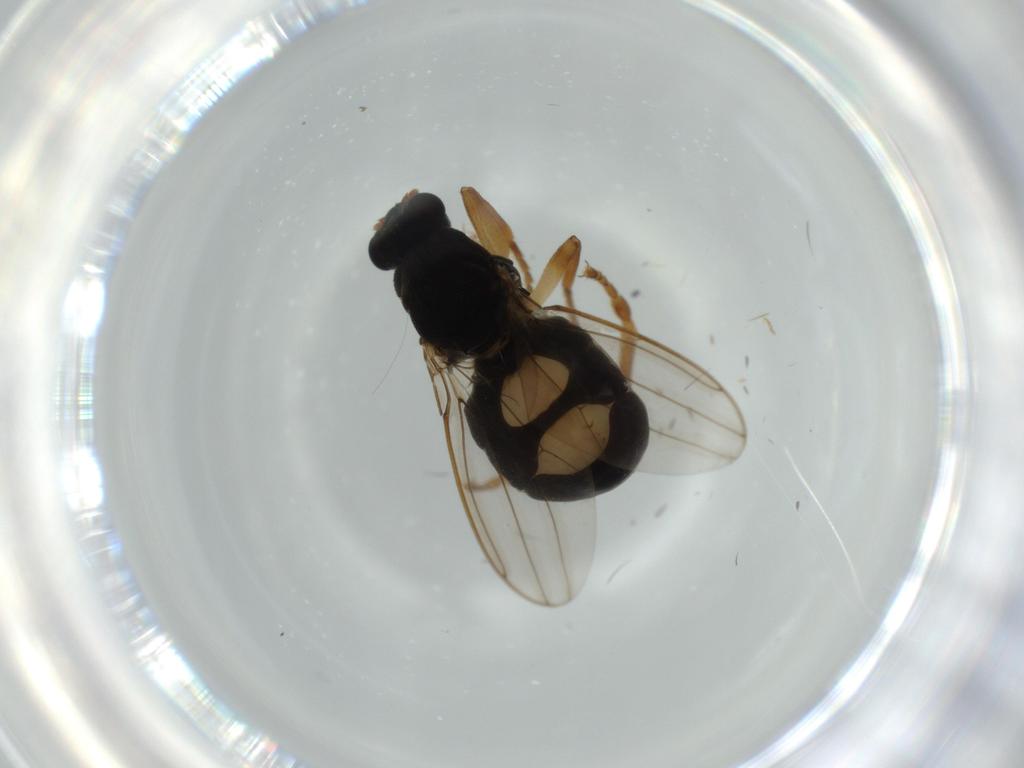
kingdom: Animalia
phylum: Arthropoda
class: Insecta
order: Diptera
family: Sphaeroceridae
